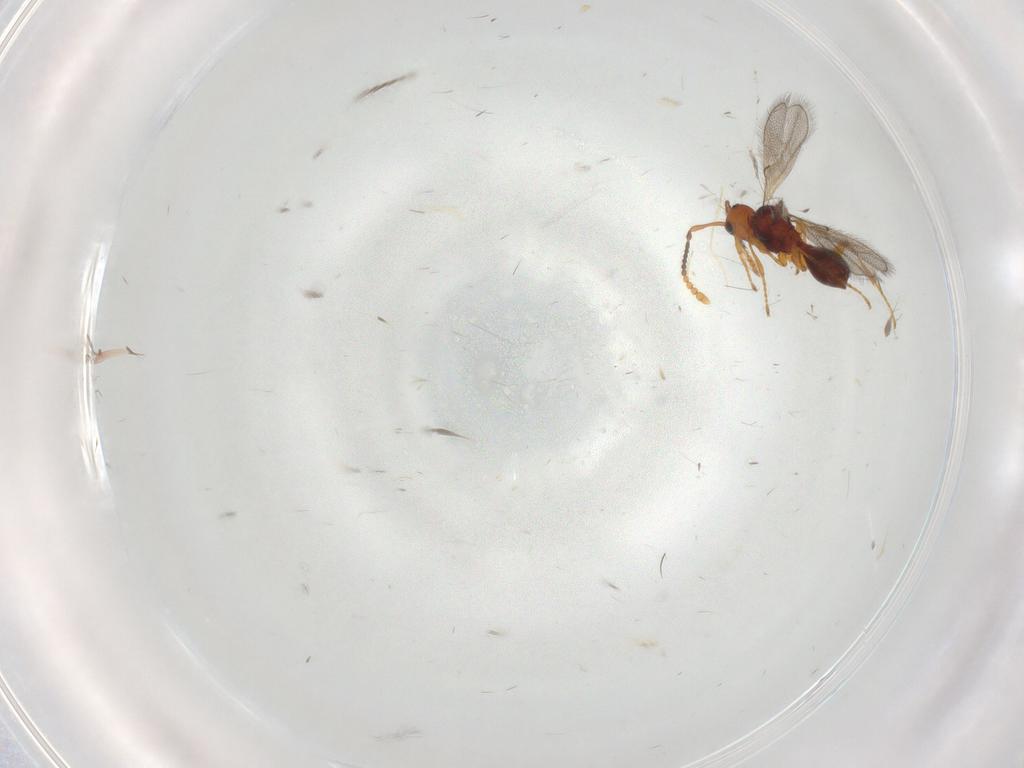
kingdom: Animalia
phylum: Arthropoda
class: Insecta
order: Hymenoptera
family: Diapriidae
